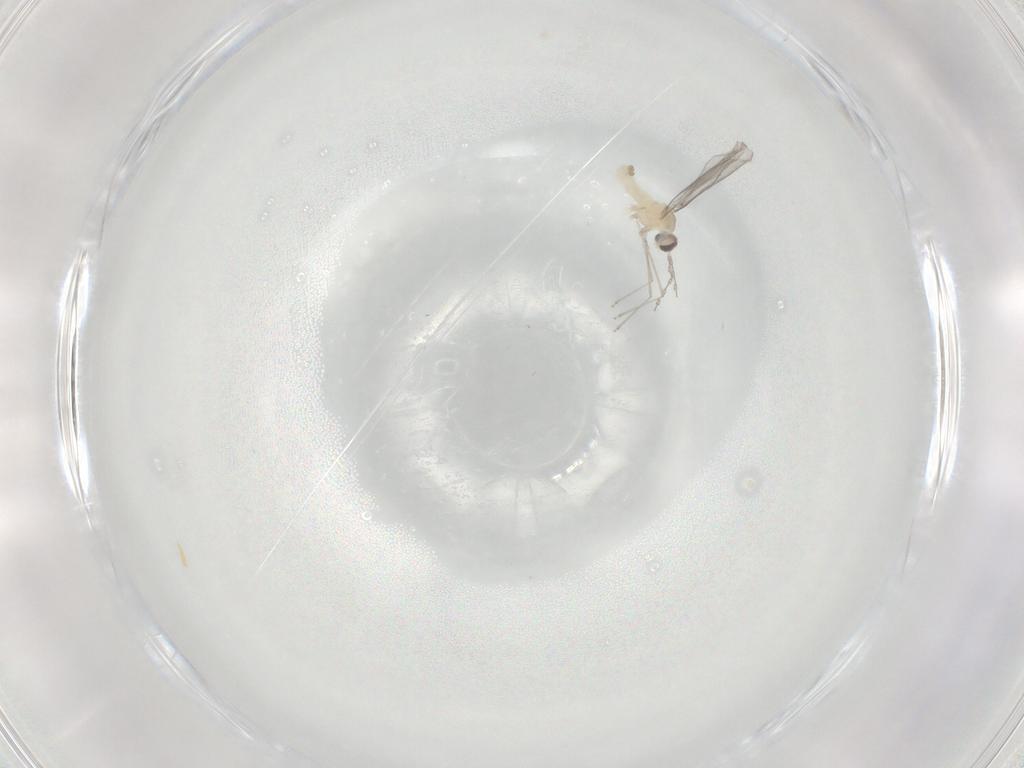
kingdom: Animalia
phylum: Arthropoda
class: Insecta
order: Diptera
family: Cecidomyiidae
